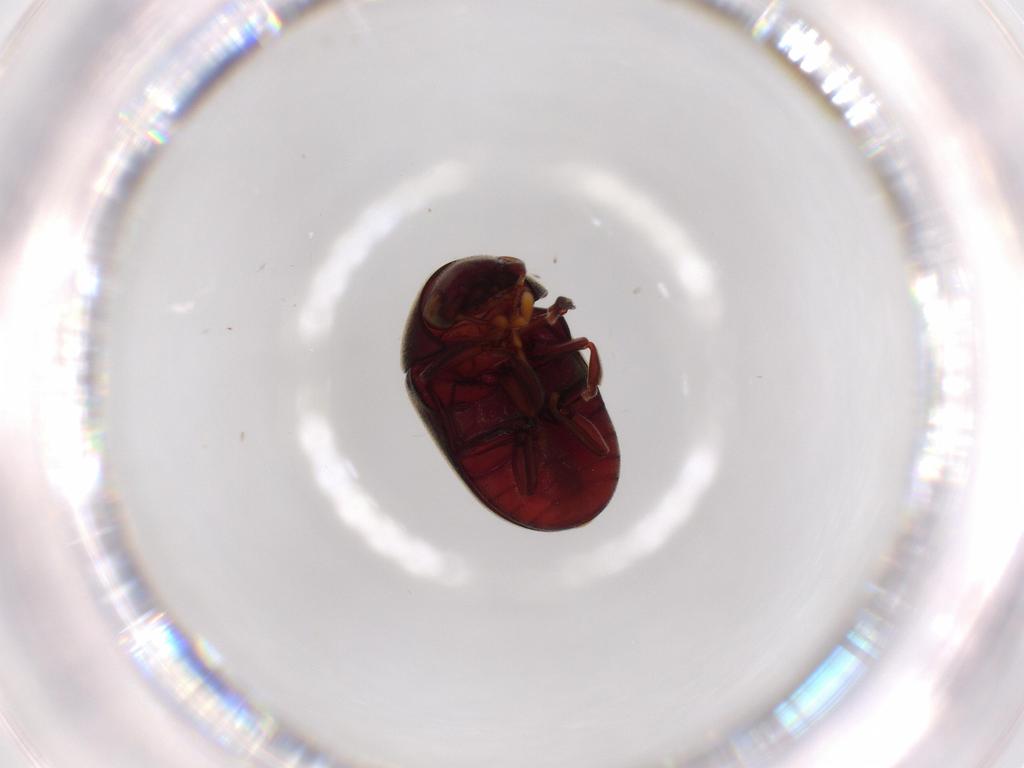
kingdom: Animalia
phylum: Arthropoda
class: Insecta
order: Coleoptera
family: Ptinidae
